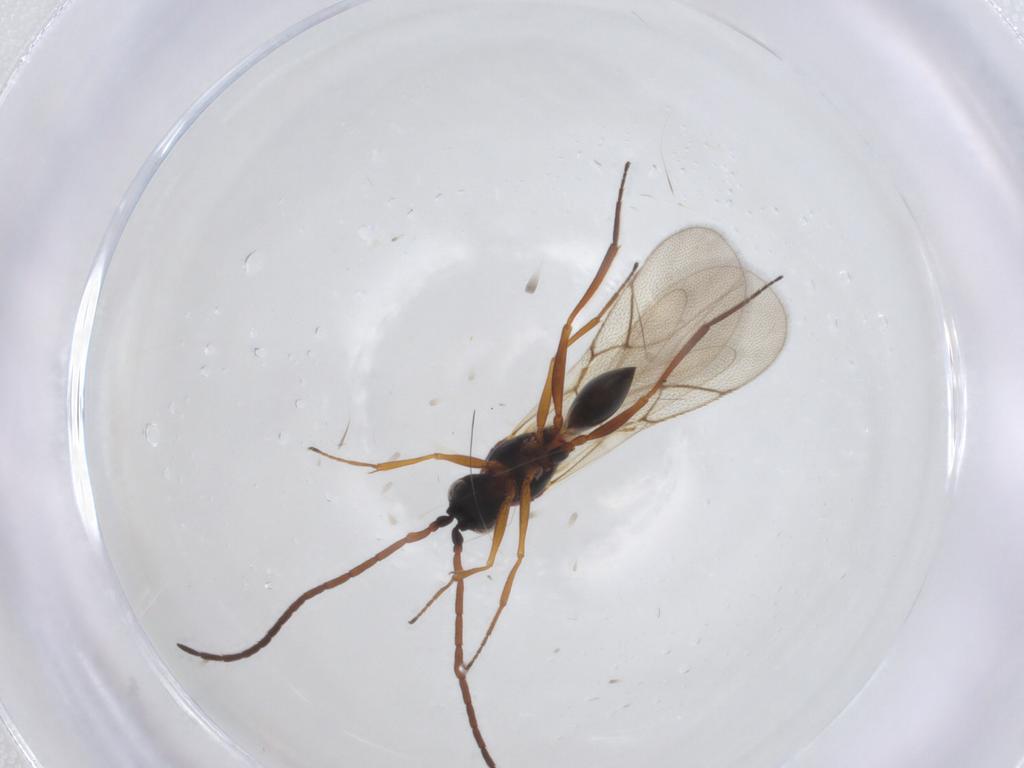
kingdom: Animalia
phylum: Arthropoda
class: Insecta
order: Hymenoptera
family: Figitidae
